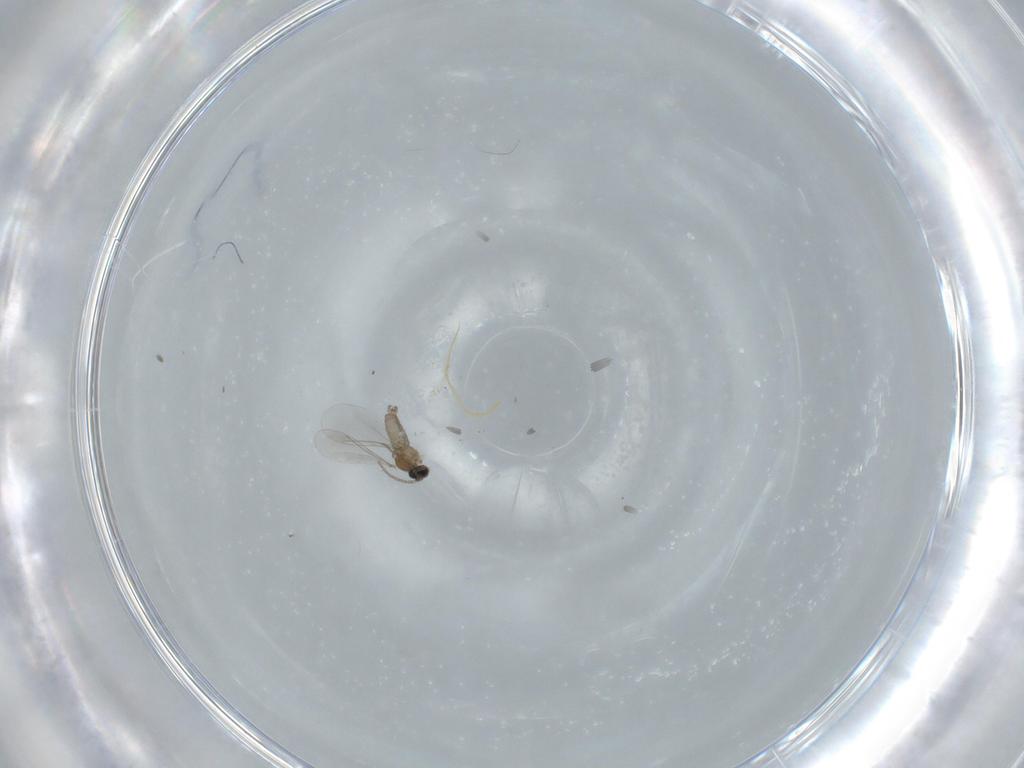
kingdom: Animalia
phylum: Arthropoda
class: Insecta
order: Diptera
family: Cecidomyiidae
